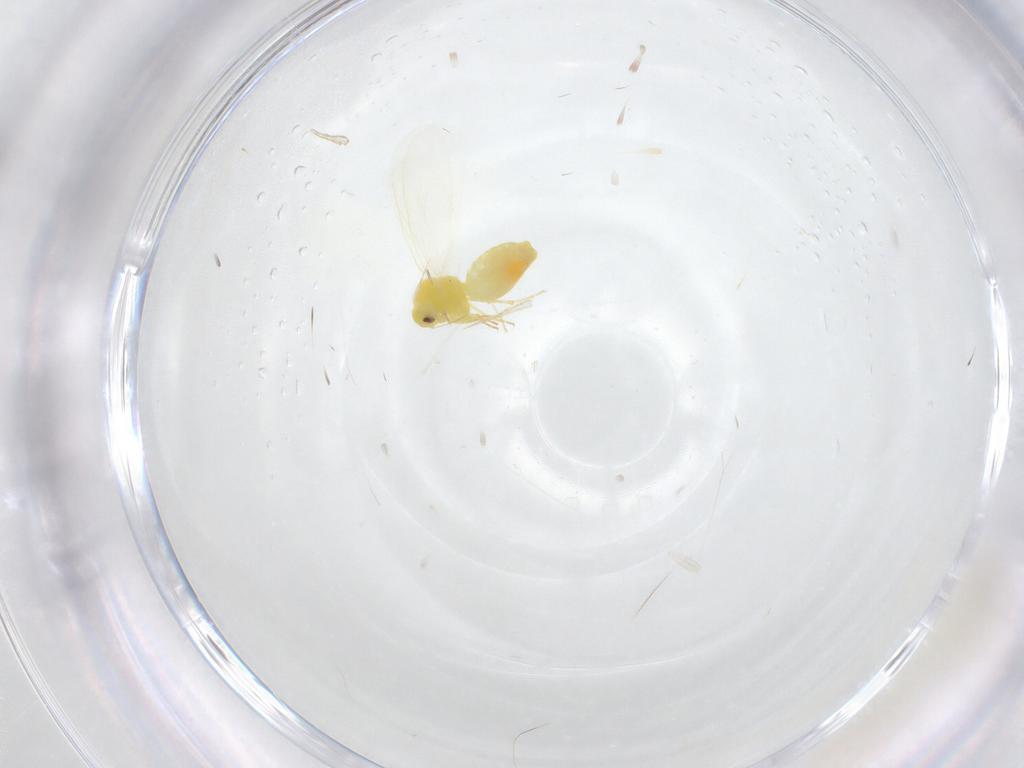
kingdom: Animalia
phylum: Arthropoda
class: Insecta
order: Hemiptera
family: Aleyrodidae
